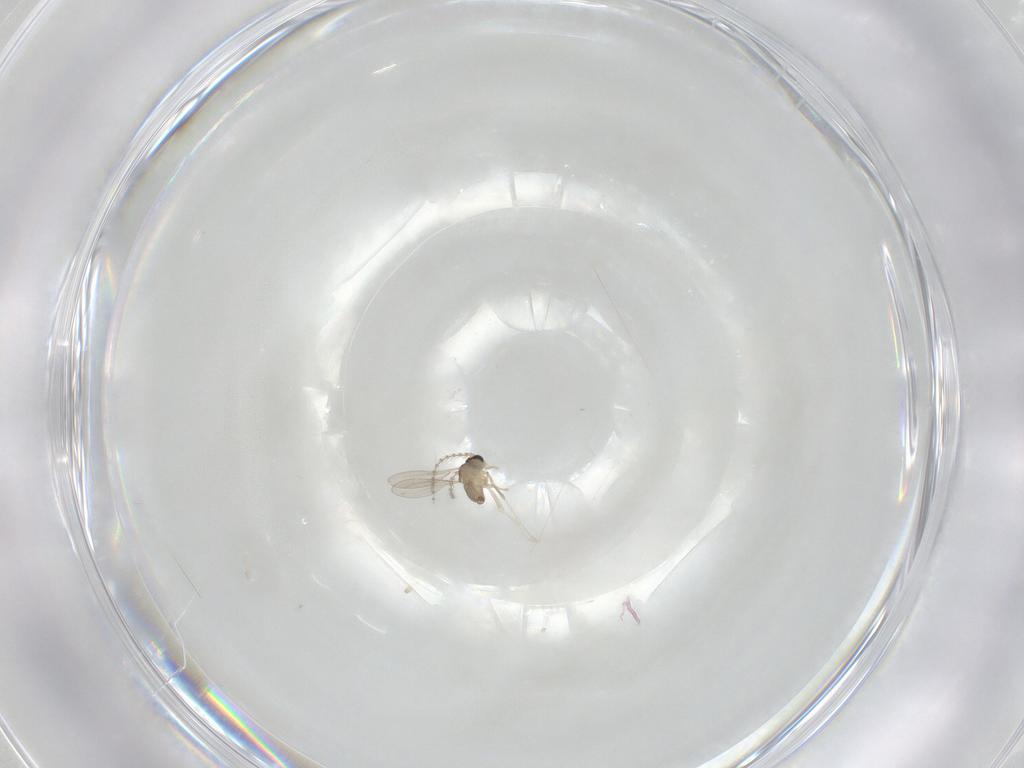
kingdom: Animalia
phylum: Arthropoda
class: Insecta
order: Diptera
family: Cecidomyiidae
